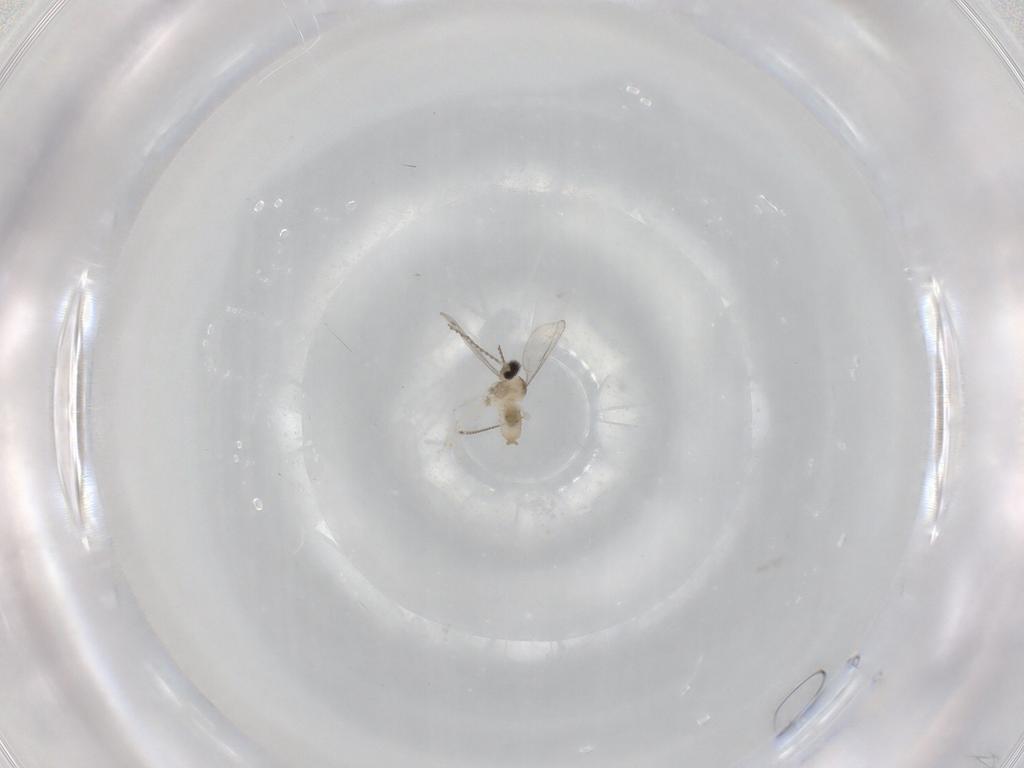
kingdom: Animalia
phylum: Arthropoda
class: Insecta
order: Diptera
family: Cecidomyiidae
